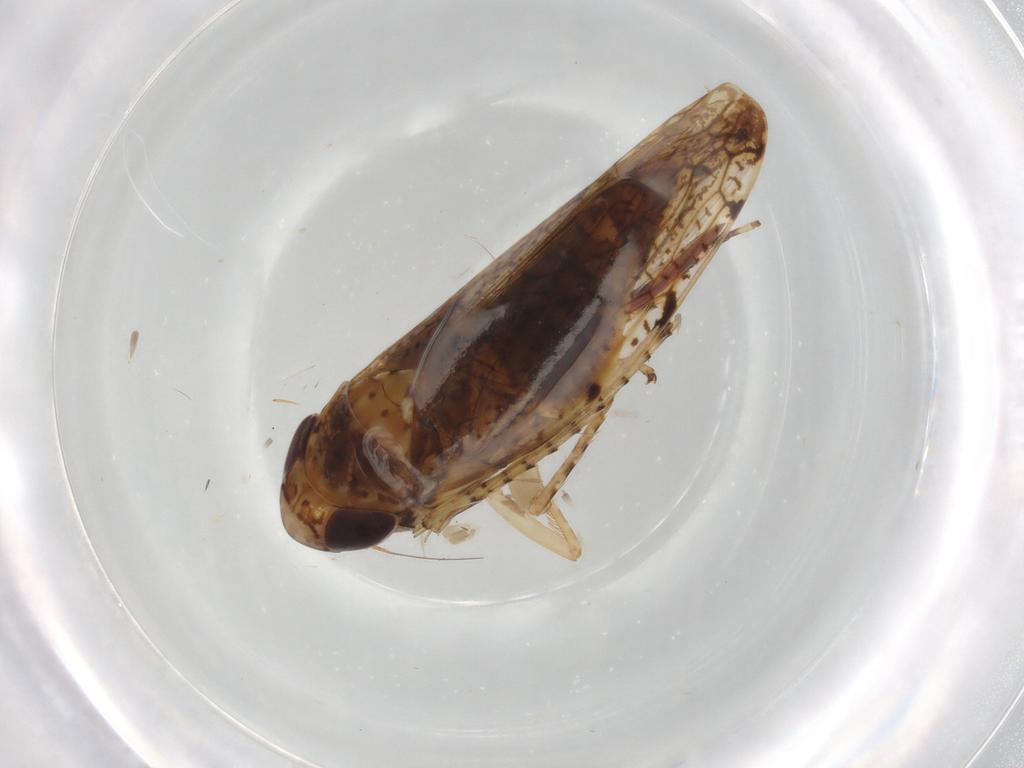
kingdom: Animalia
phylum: Arthropoda
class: Insecta
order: Hemiptera
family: Cicadellidae
